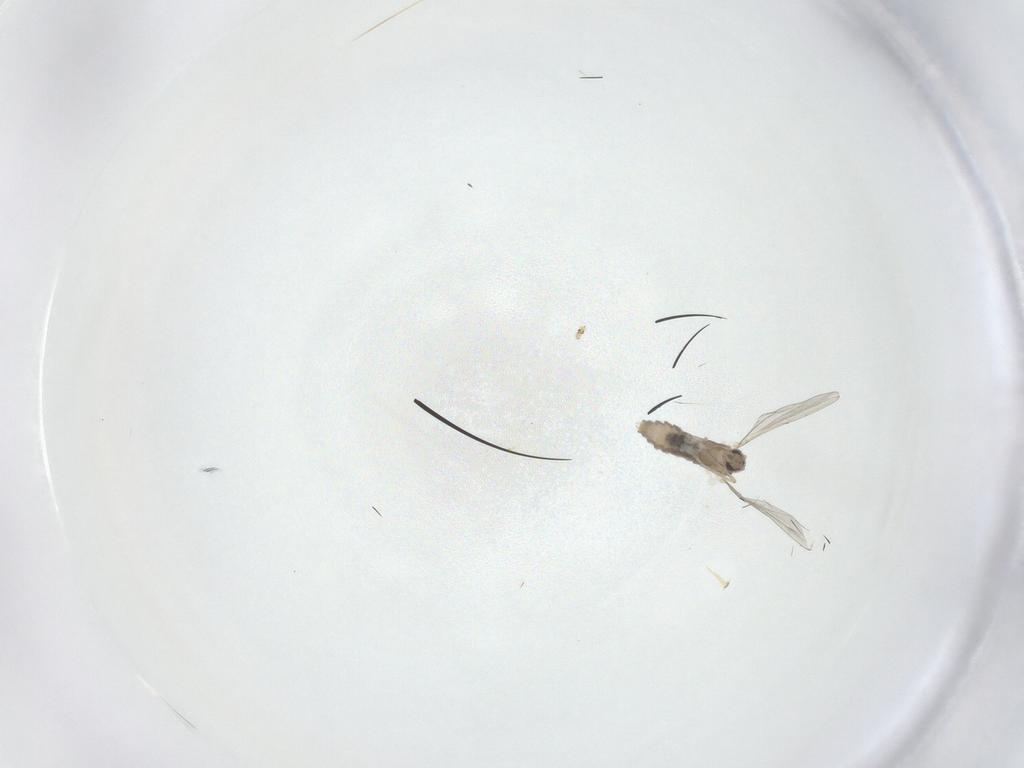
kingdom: Animalia
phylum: Arthropoda
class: Insecta
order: Diptera
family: Cecidomyiidae
